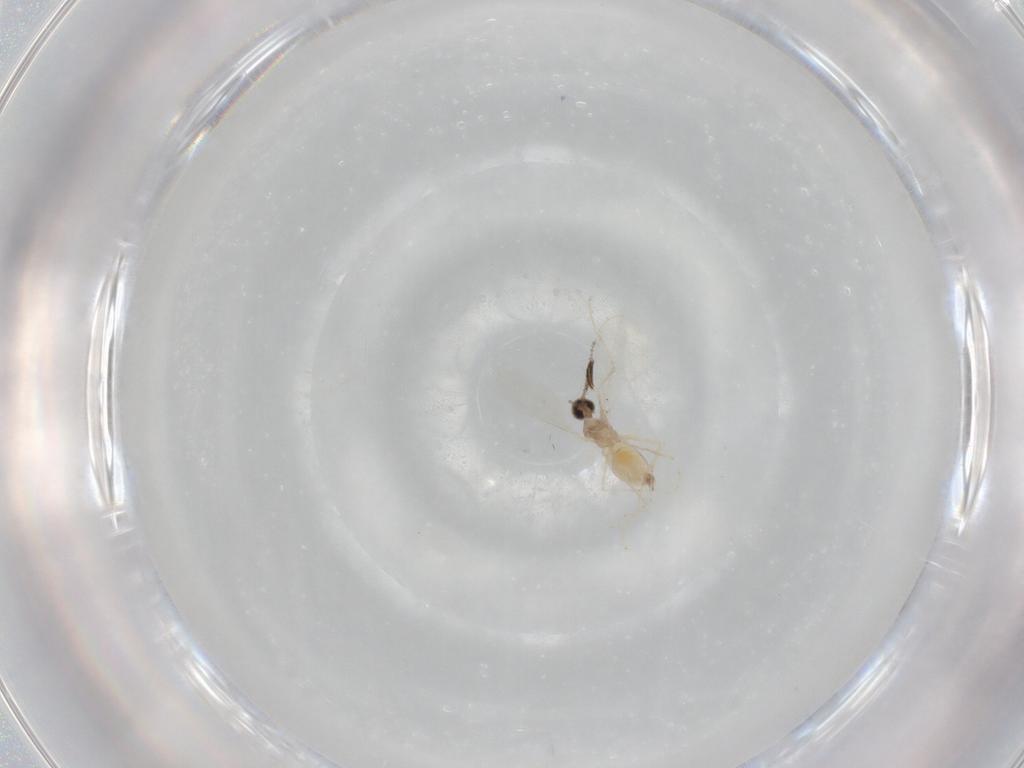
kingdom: Animalia
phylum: Arthropoda
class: Insecta
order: Diptera
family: Cecidomyiidae
